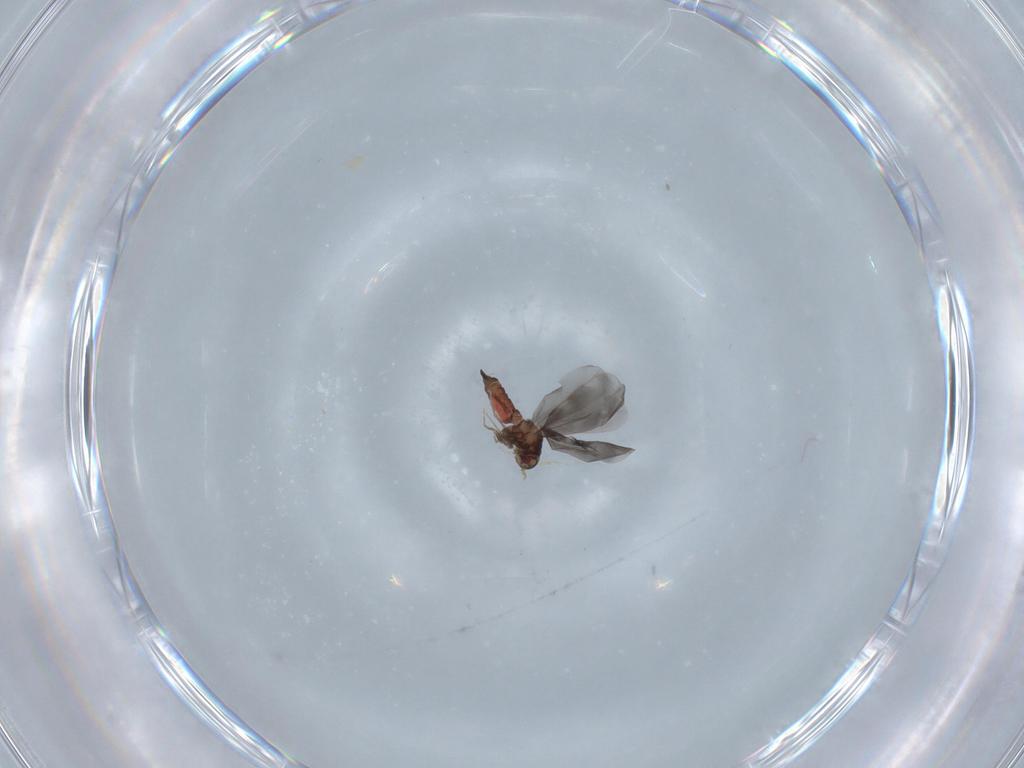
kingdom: Animalia
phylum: Arthropoda
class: Insecta
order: Hemiptera
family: Aleyrodidae
